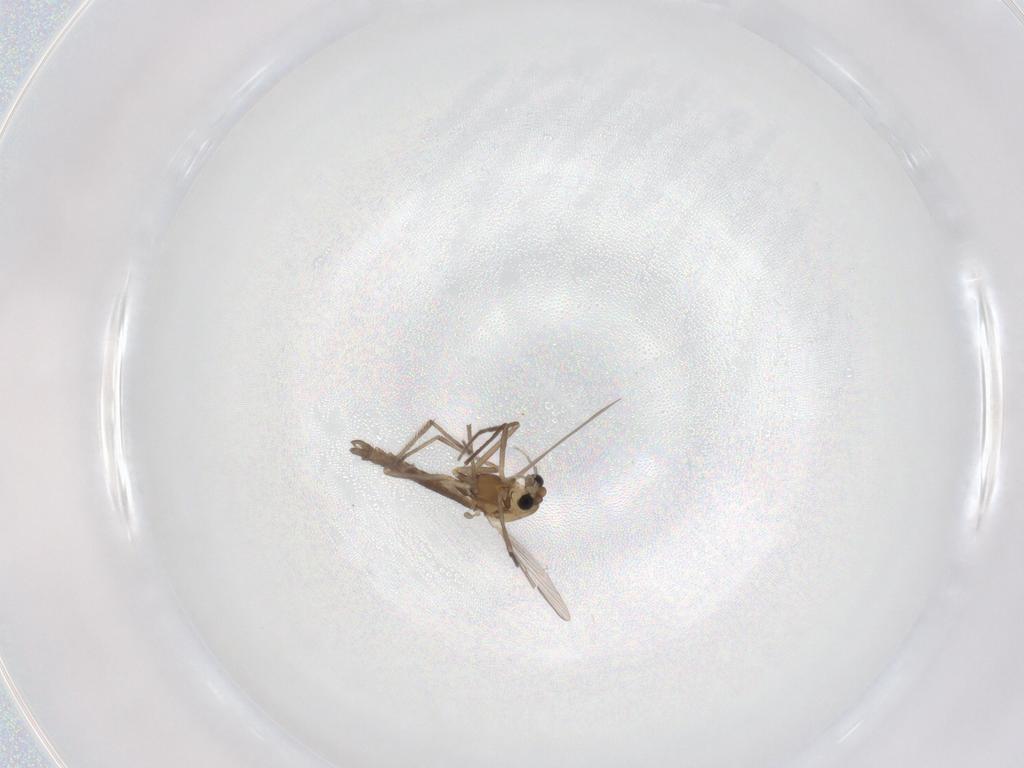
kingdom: Animalia
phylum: Arthropoda
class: Insecta
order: Diptera
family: Chironomidae
